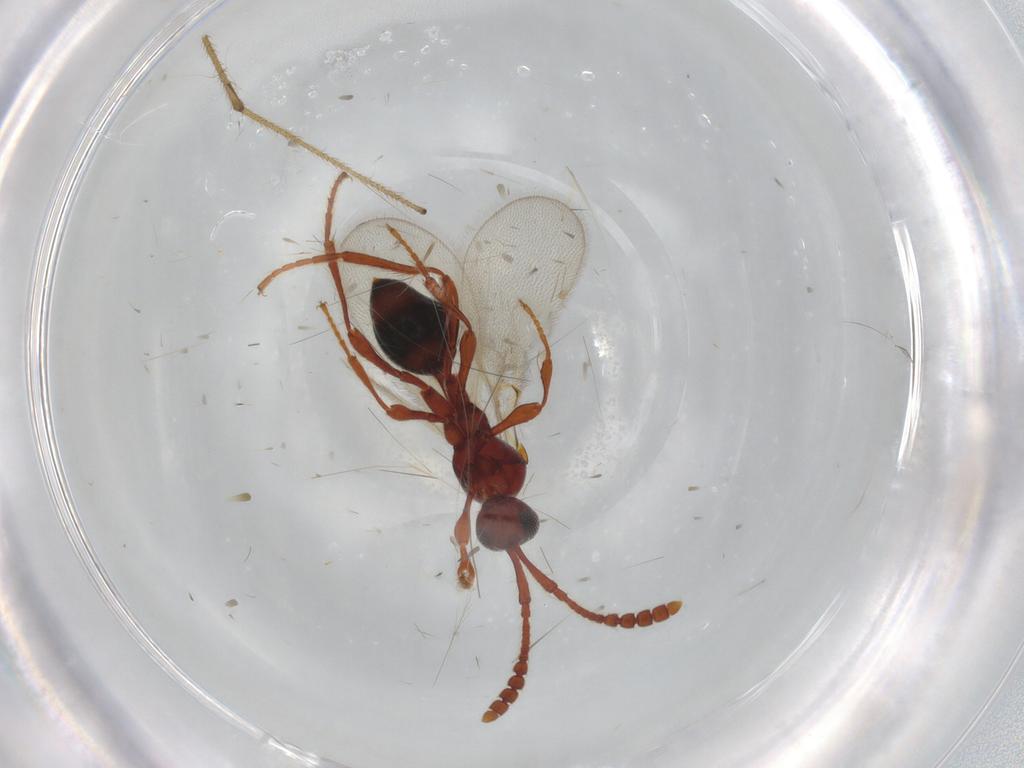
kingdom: Animalia
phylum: Arthropoda
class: Insecta
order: Hymenoptera
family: Diapriidae
